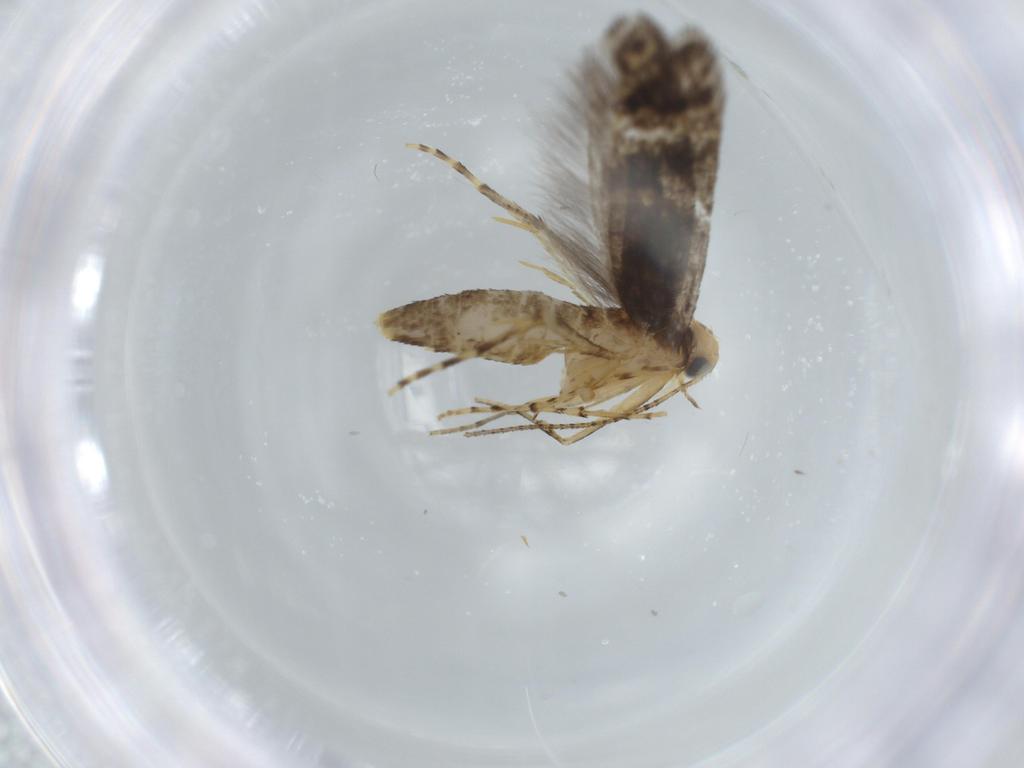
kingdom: Animalia
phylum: Arthropoda
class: Insecta
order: Lepidoptera
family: Argyresthiidae
